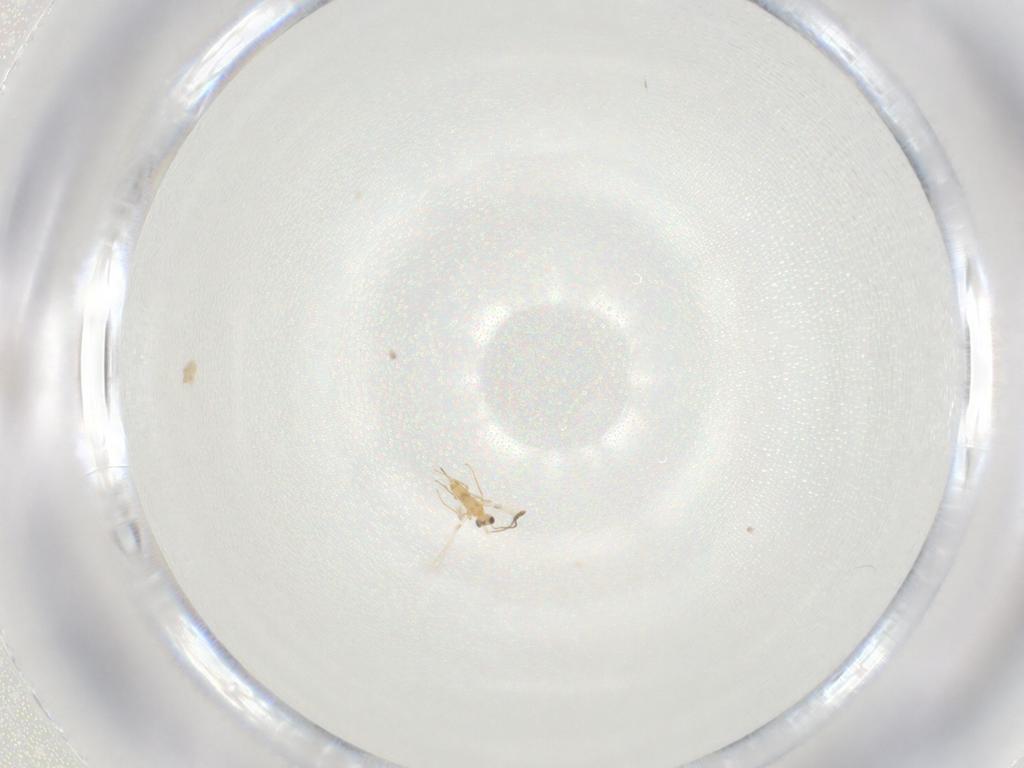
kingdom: Animalia
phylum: Arthropoda
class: Insecta
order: Hymenoptera
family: Mymaridae
